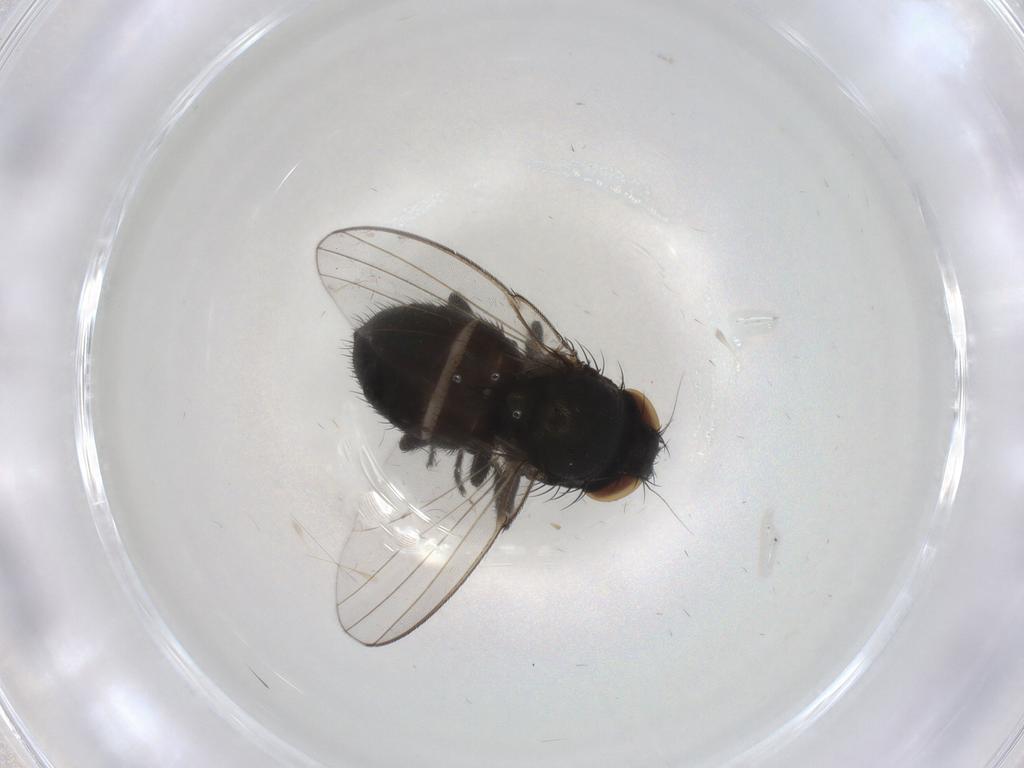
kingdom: Animalia
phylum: Arthropoda
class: Insecta
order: Diptera
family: Milichiidae
